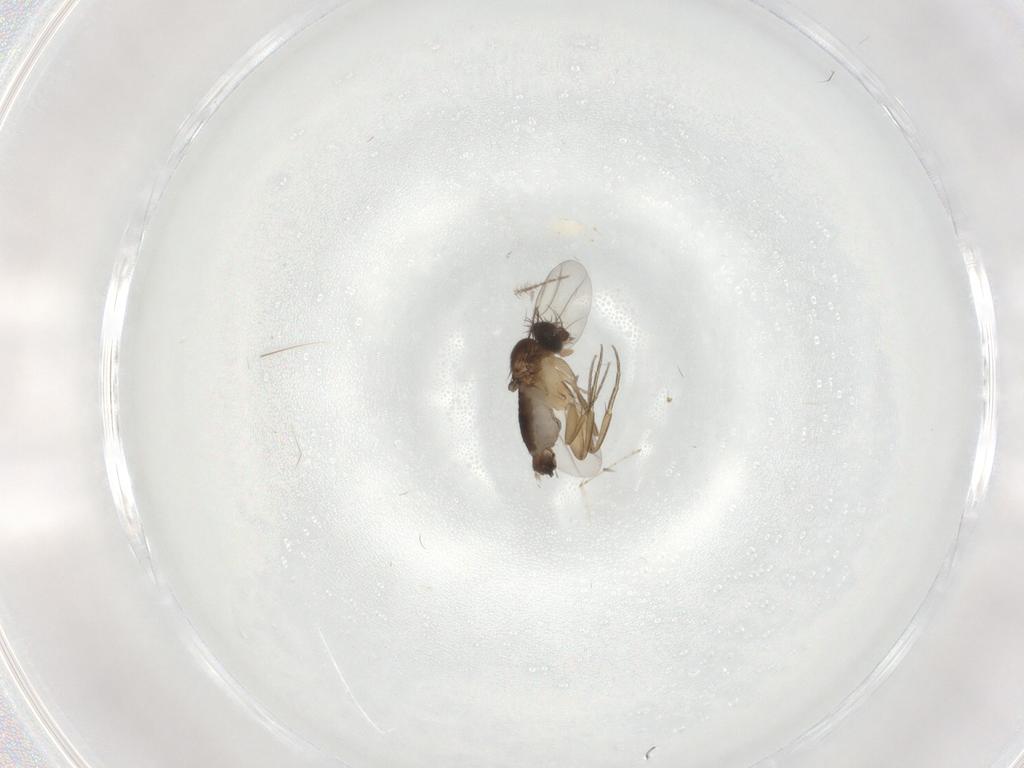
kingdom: Animalia
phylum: Arthropoda
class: Insecta
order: Diptera
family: Phoridae
